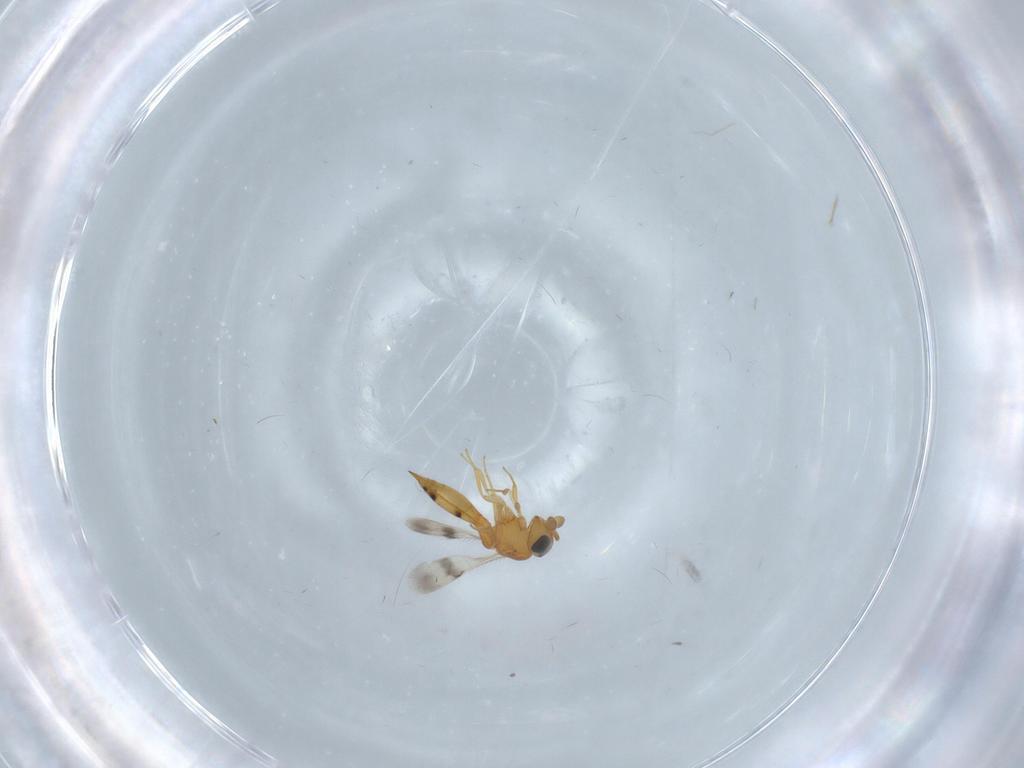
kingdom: Animalia
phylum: Arthropoda
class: Insecta
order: Hymenoptera
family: Scelionidae
